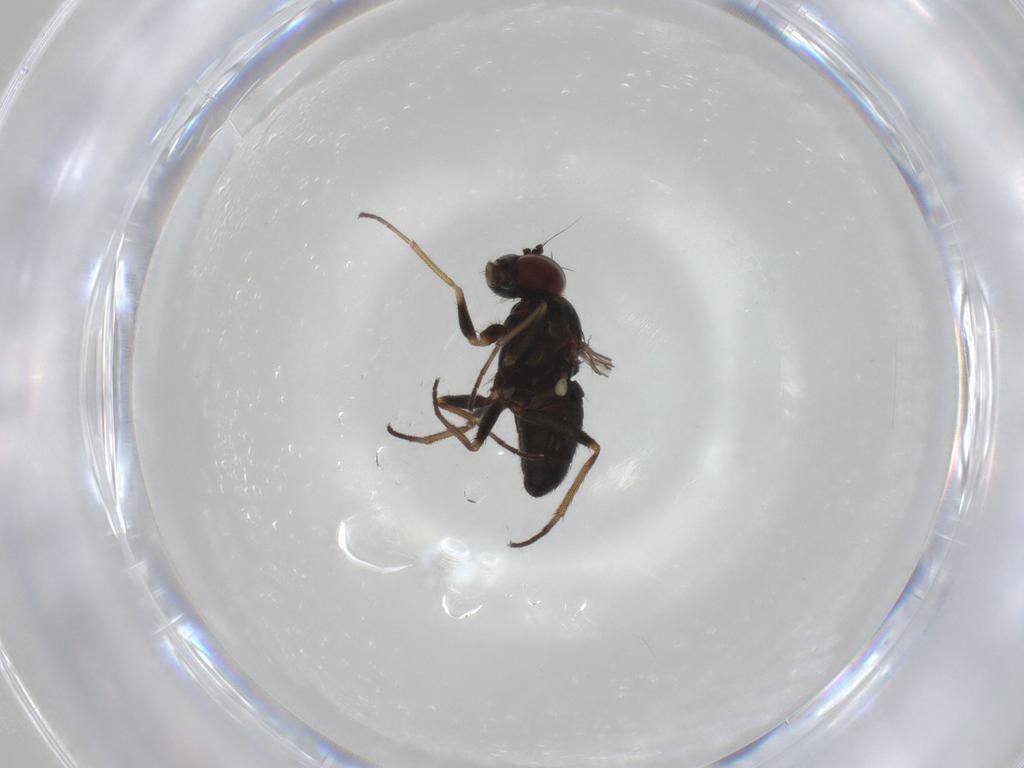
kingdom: Animalia
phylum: Arthropoda
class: Insecta
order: Diptera
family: Dolichopodidae
